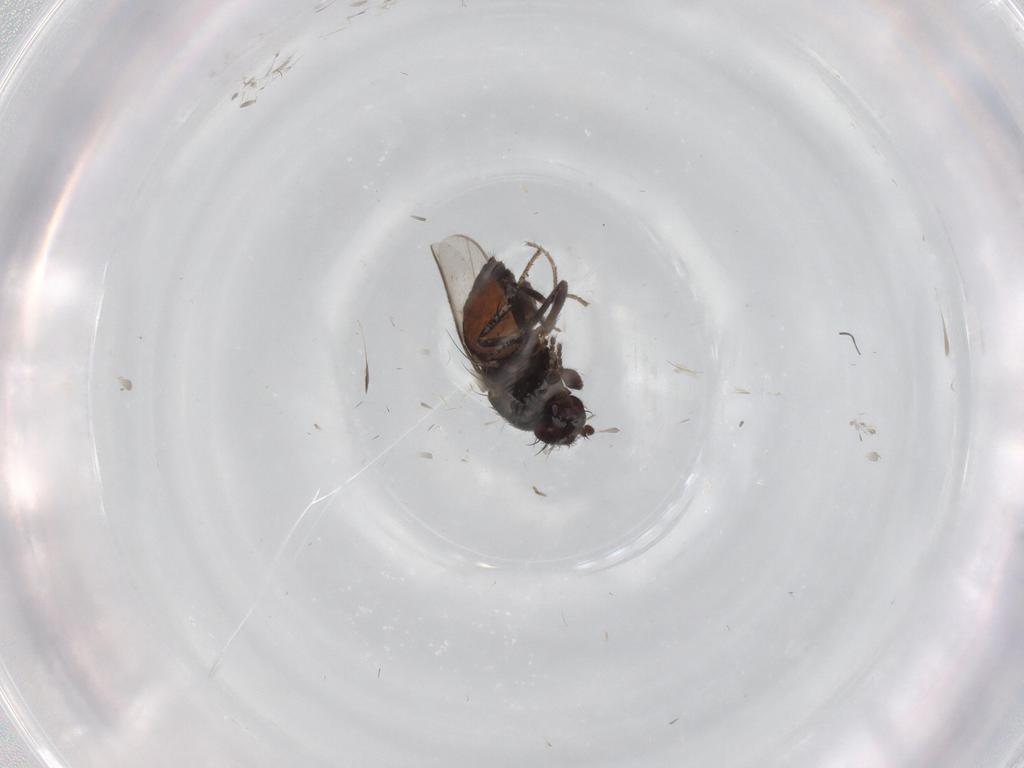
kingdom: Animalia
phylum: Arthropoda
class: Insecta
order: Diptera
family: Sphaeroceridae
